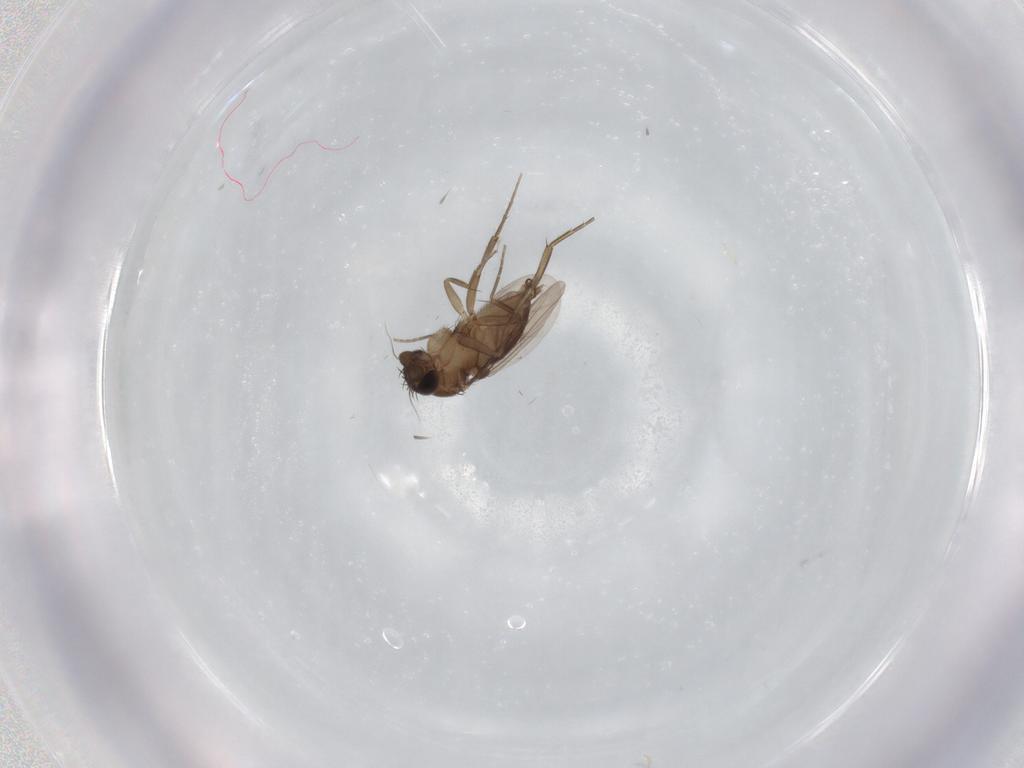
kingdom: Animalia
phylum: Arthropoda
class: Insecta
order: Diptera
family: Phoridae
